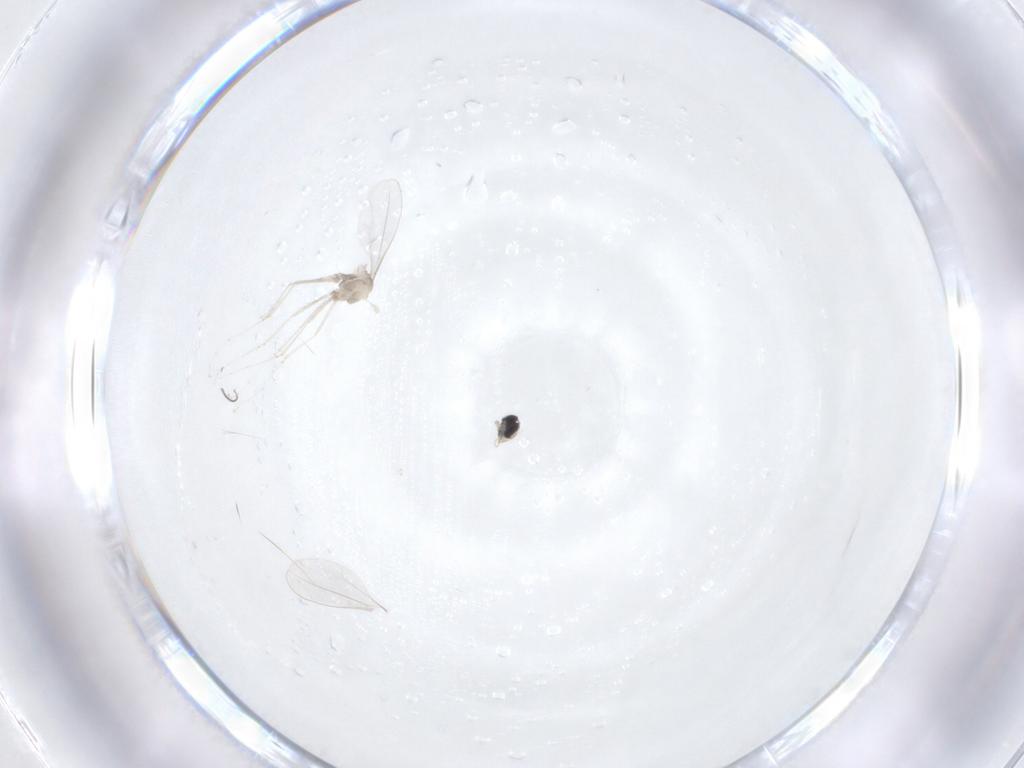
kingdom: Animalia
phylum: Arthropoda
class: Insecta
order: Diptera
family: Cecidomyiidae
